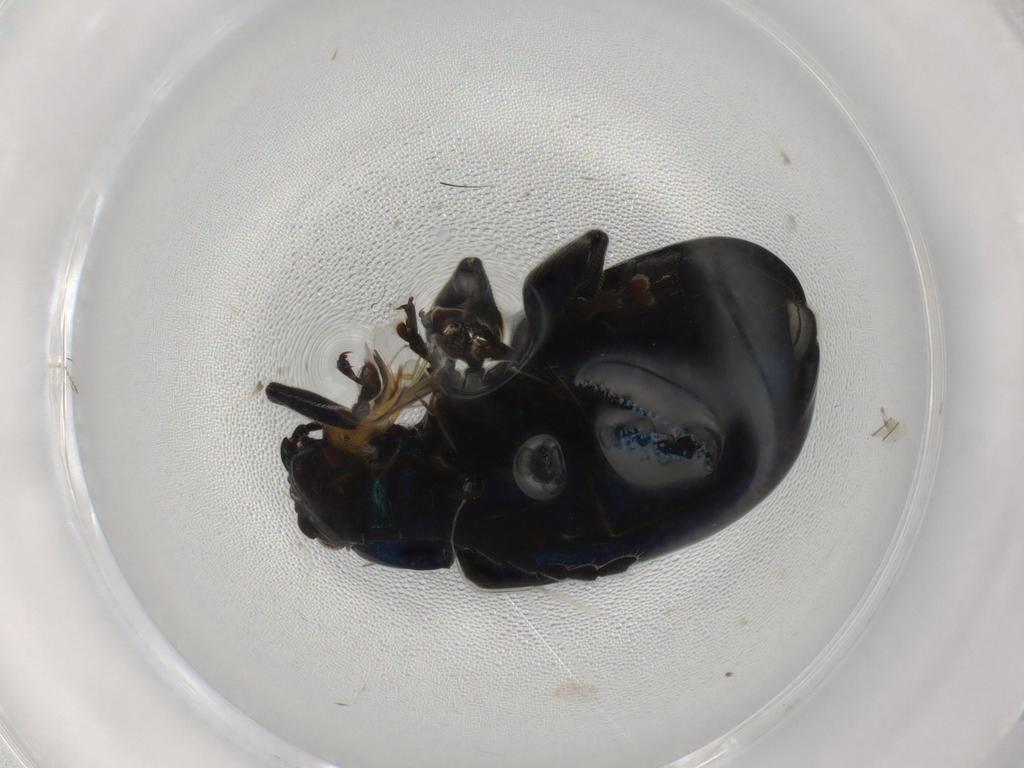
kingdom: Animalia
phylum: Arthropoda
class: Insecta
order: Coleoptera
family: Chrysomelidae
